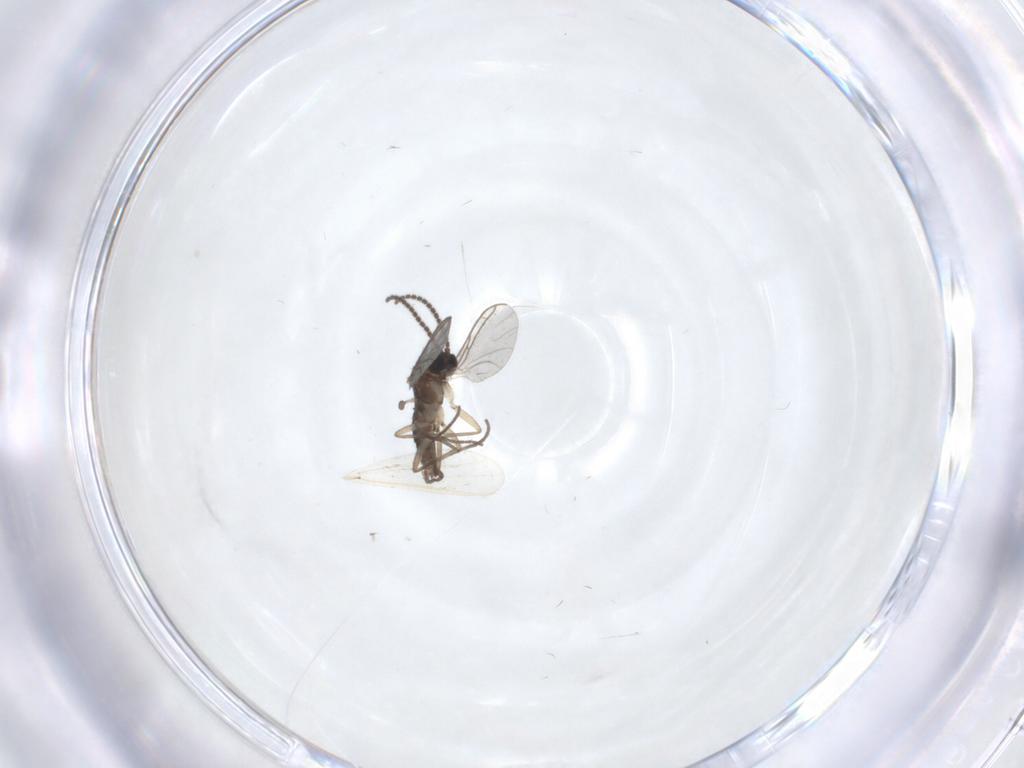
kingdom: Animalia
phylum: Arthropoda
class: Insecta
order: Diptera
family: Sciaridae
